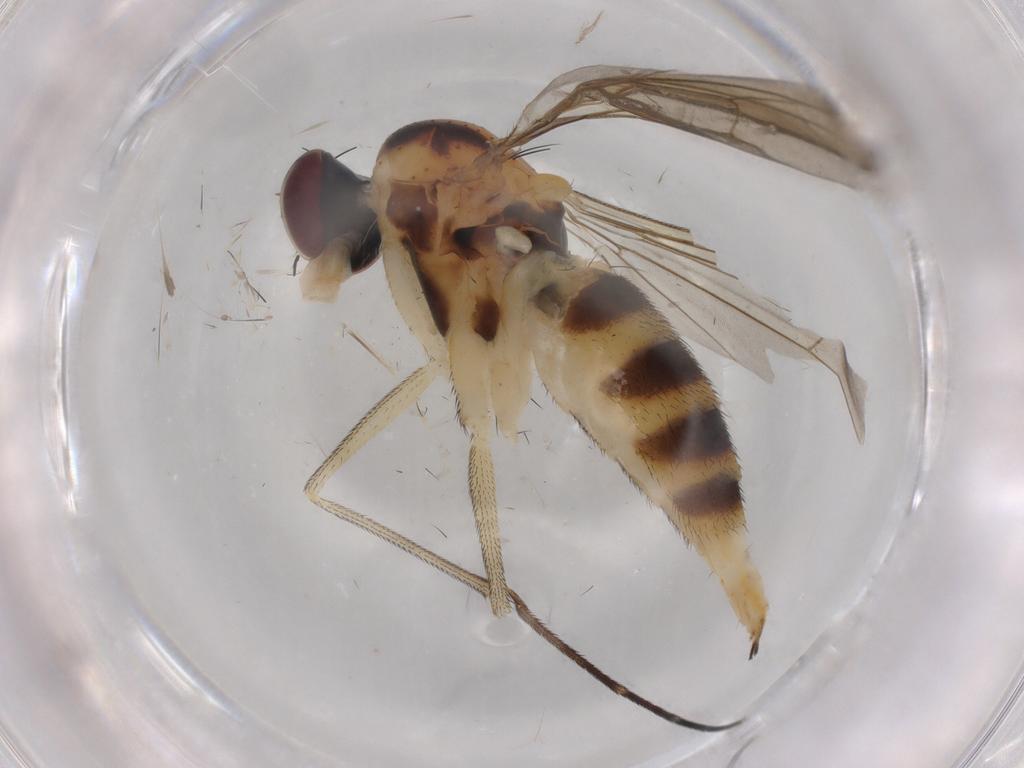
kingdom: Animalia
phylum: Arthropoda
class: Insecta
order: Diptera
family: Chironomidae
